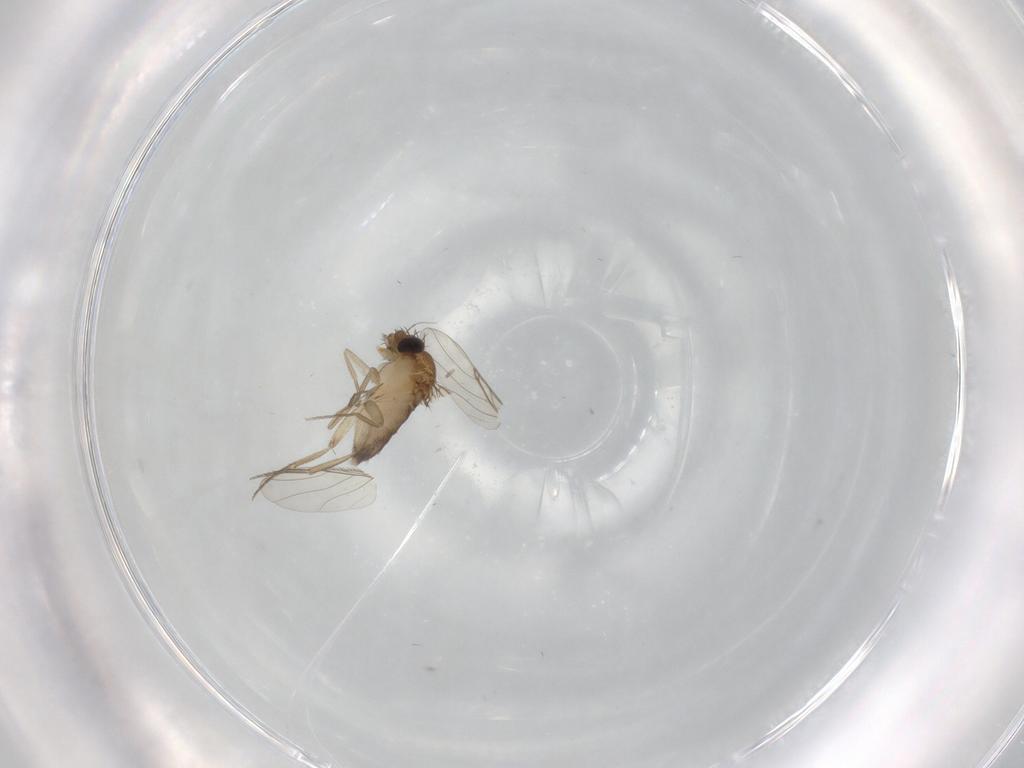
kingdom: Animalia
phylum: Arthropoda
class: Insecta
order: Diptera
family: Phoridae
